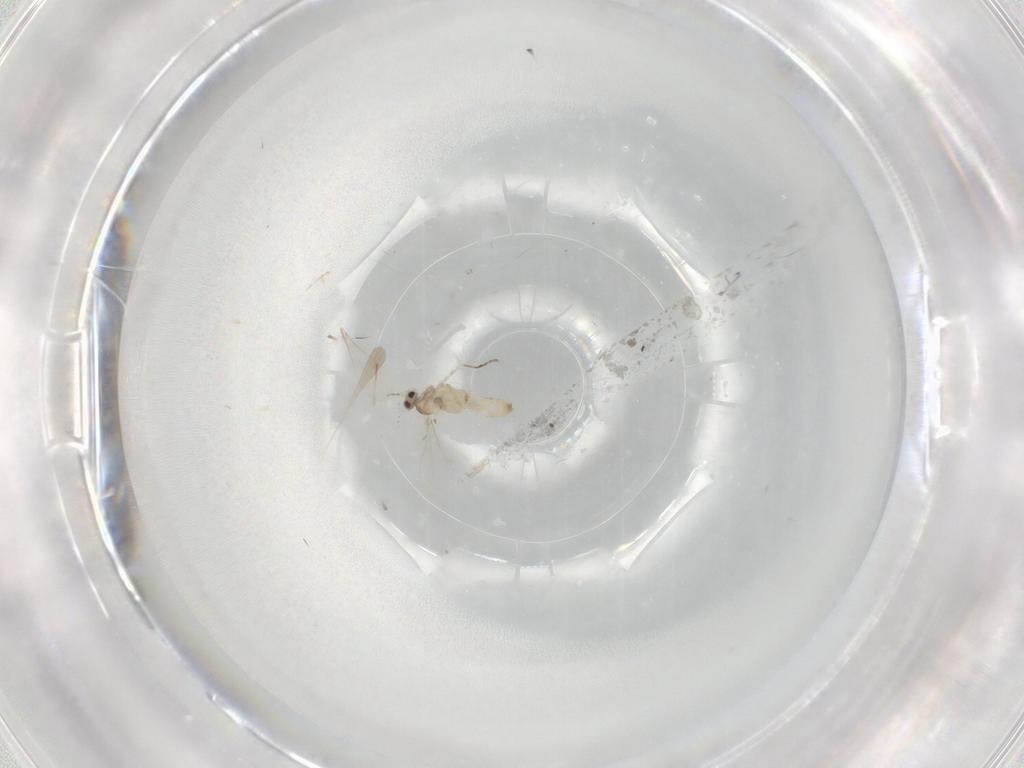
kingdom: Animalia
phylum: Arthropoda
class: Insecta
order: Diptera
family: Cecidomyiidae
